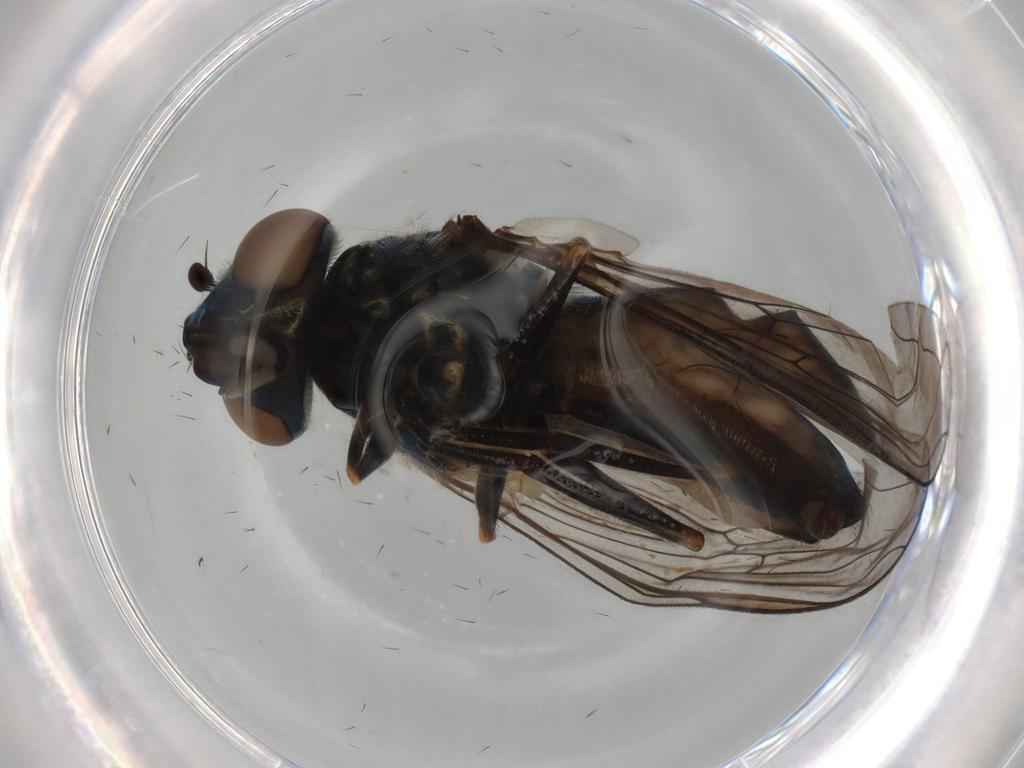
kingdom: Animalia
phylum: Arthropoda
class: Insecta
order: Diptera
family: Syrphidae
